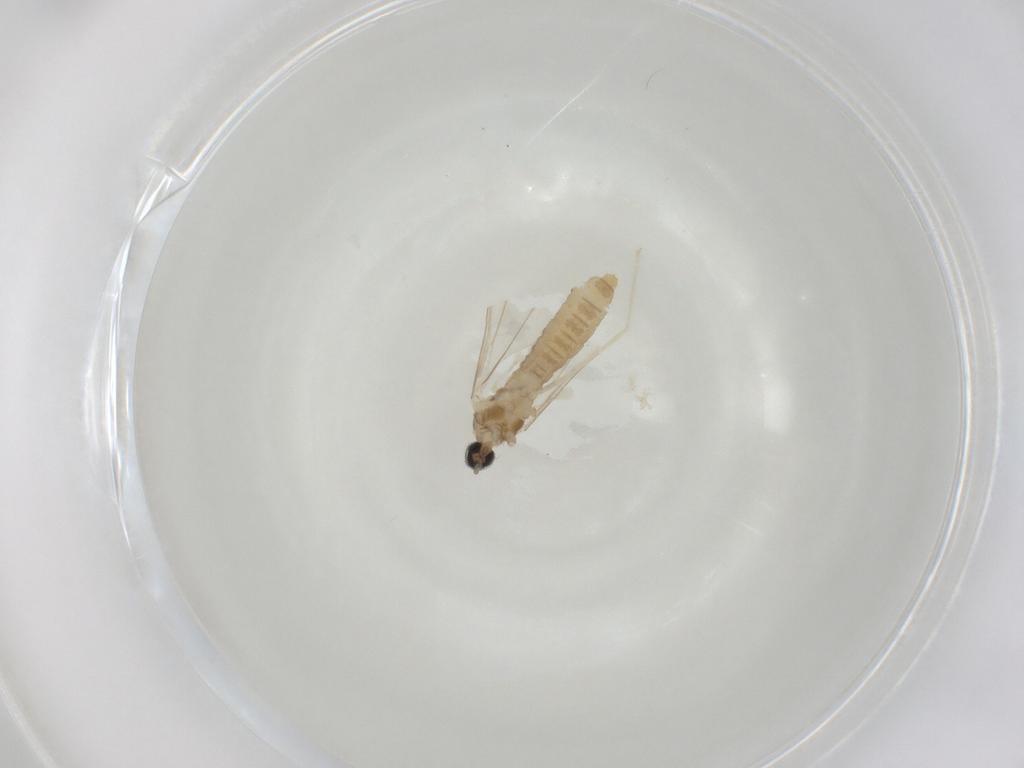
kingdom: Animalia
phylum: Arthropoda
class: Insecta
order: Diptera
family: Cecidomyiidae
